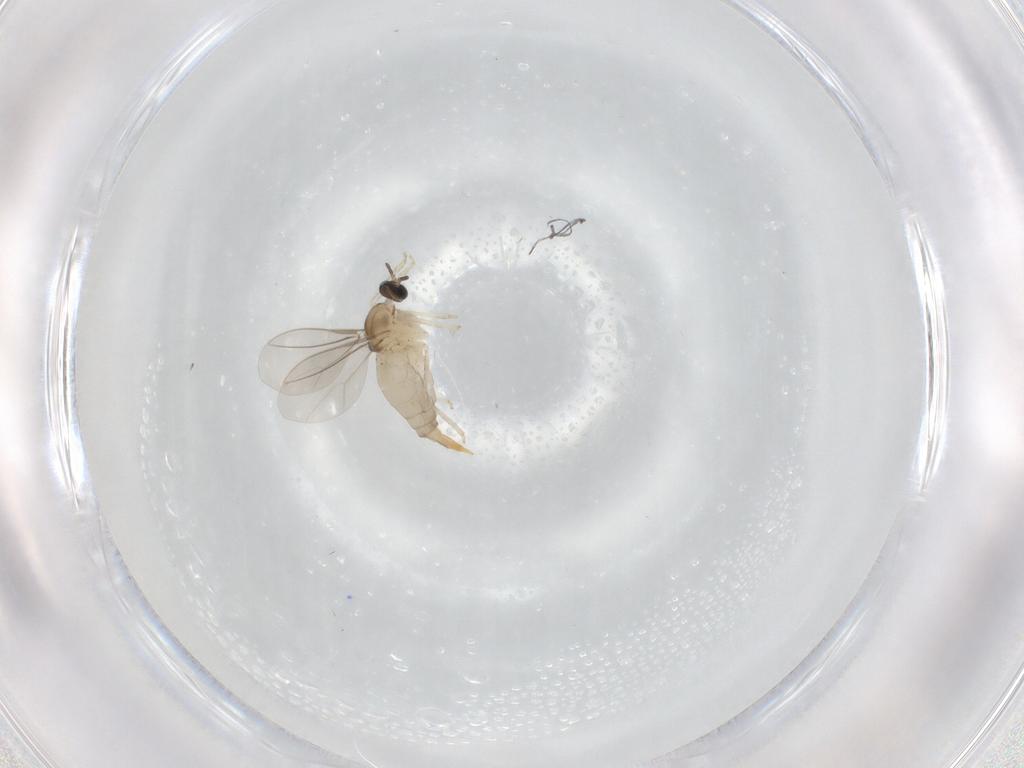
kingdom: Animalia
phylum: Arthropoda
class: Insecta
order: Diptera
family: Cecidomyiidae
